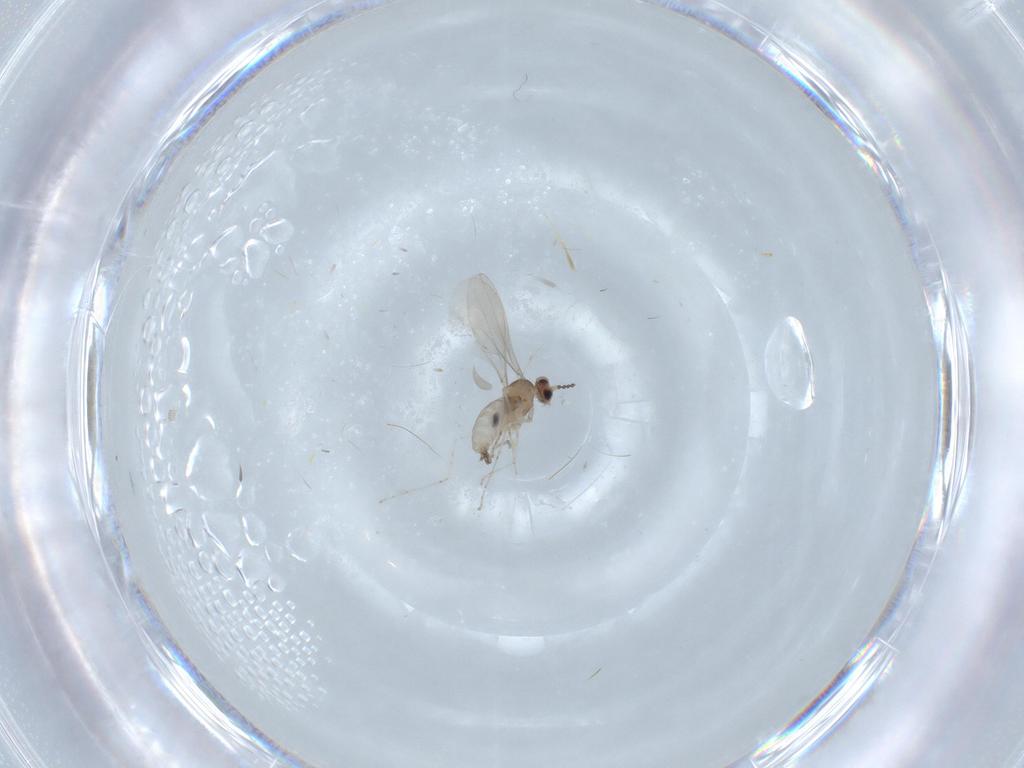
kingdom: Animalia
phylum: Arthropoda
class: Insecta
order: Diptera
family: Cecidomyiidae
